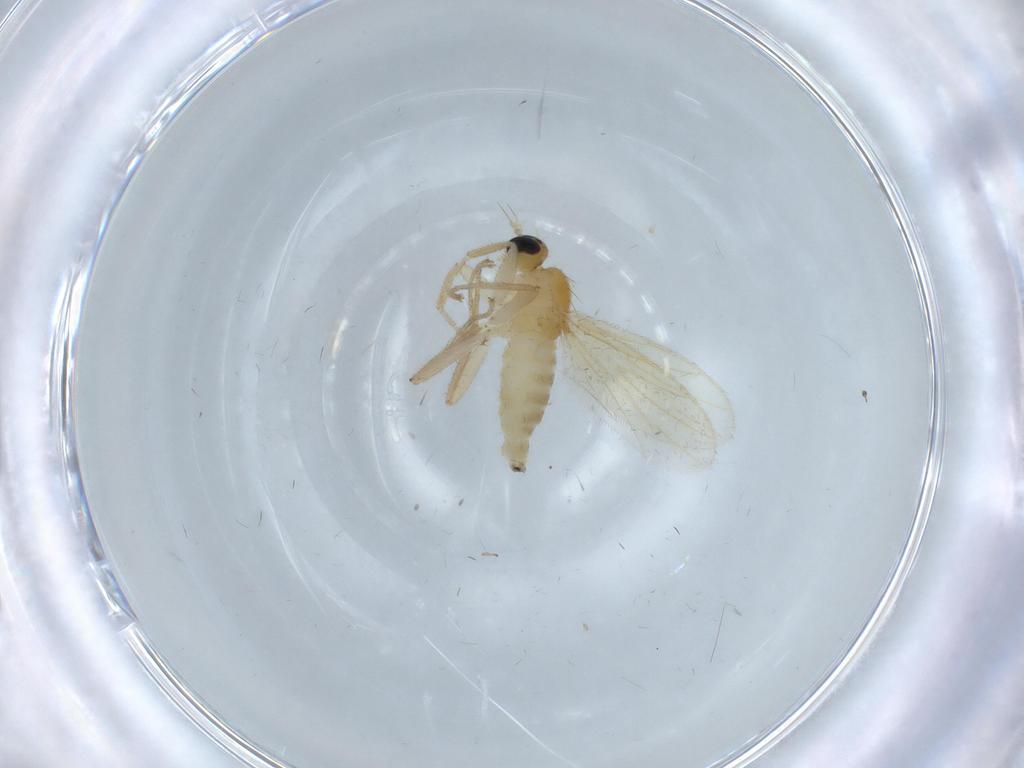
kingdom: Animalia
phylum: Arthropoda
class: Insecta
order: Diptera
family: Hybotidae
